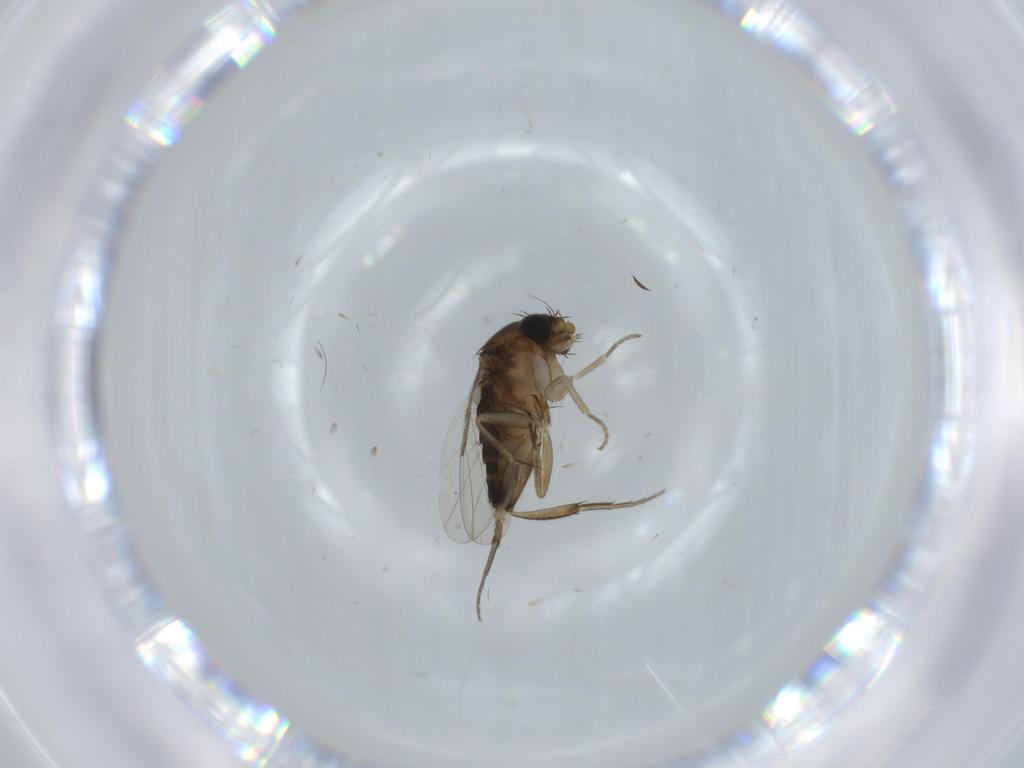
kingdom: Animalia
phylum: Arthropoda
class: Insecta
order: Diptera
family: Phoridae
